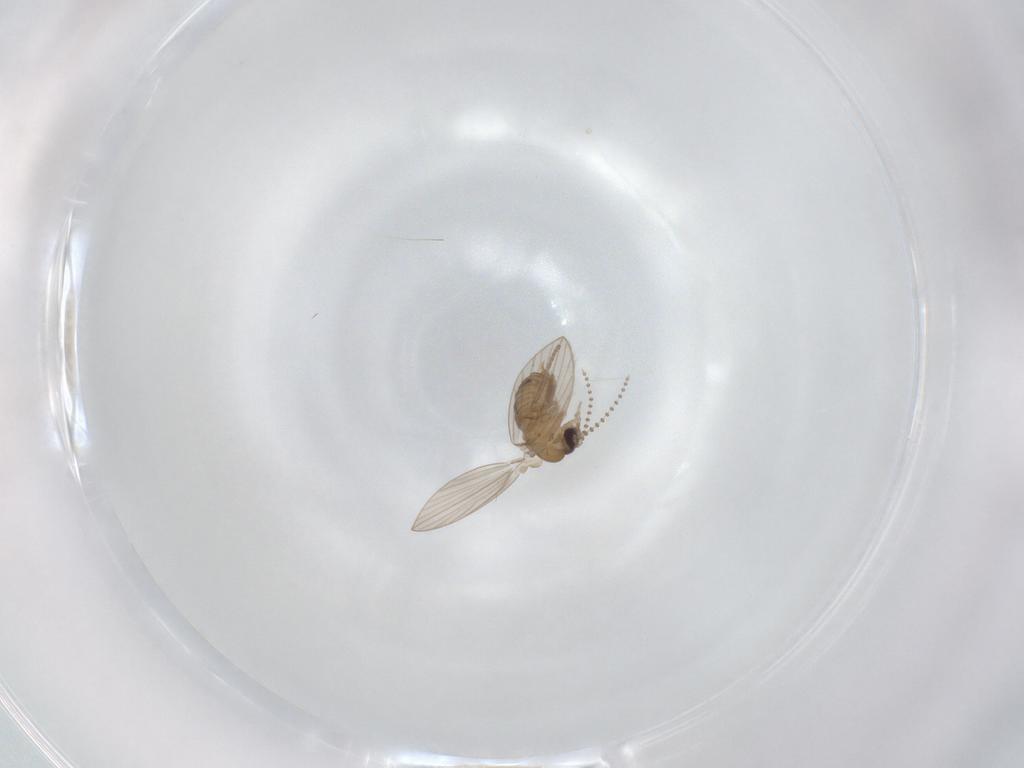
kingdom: Animalia
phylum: Arthropoda
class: Insecta
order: Diptera
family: Psychodidae
